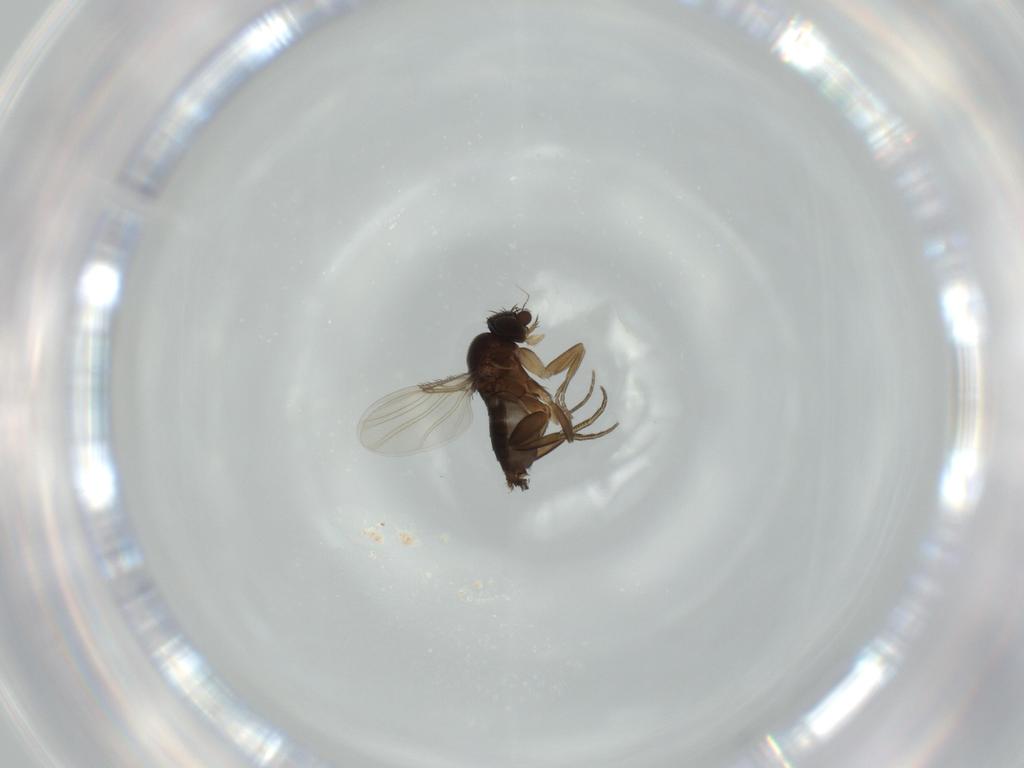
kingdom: Animalia
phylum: Arthropoda
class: Insecta
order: Diptera
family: Phoridae
